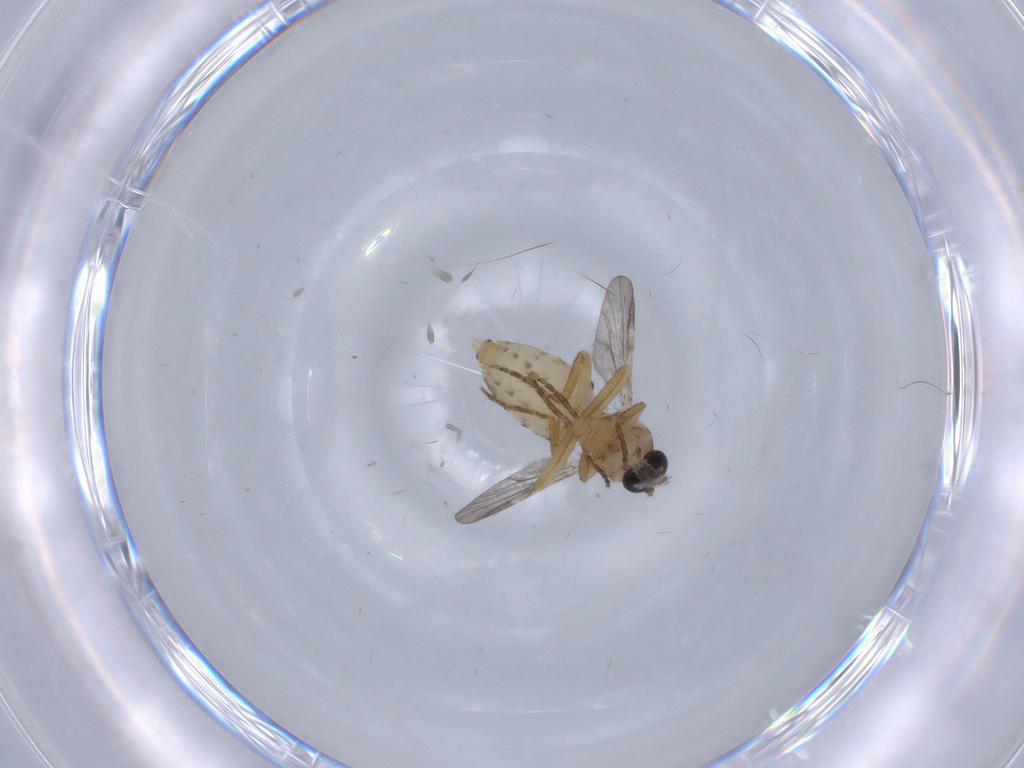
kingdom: Animalia
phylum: Arthropoda
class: Insecta
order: Diptera
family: Ceratopogonidae
